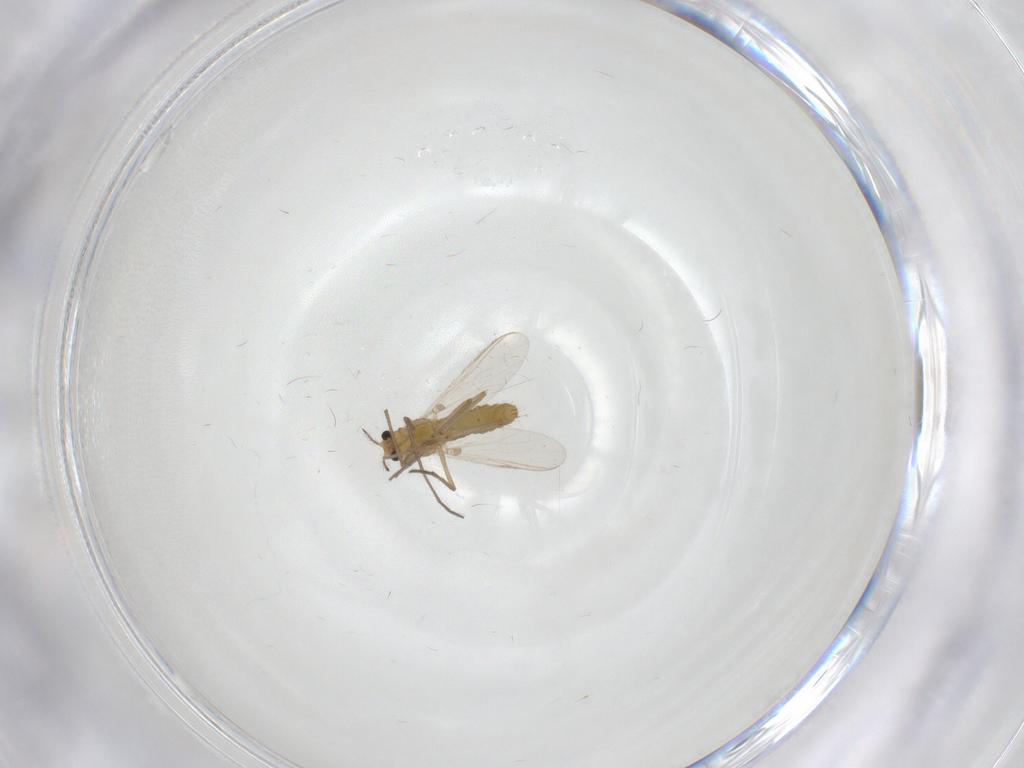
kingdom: Animalia
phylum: Arthropoda
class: Insecta
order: Diptera
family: Chironomidae
